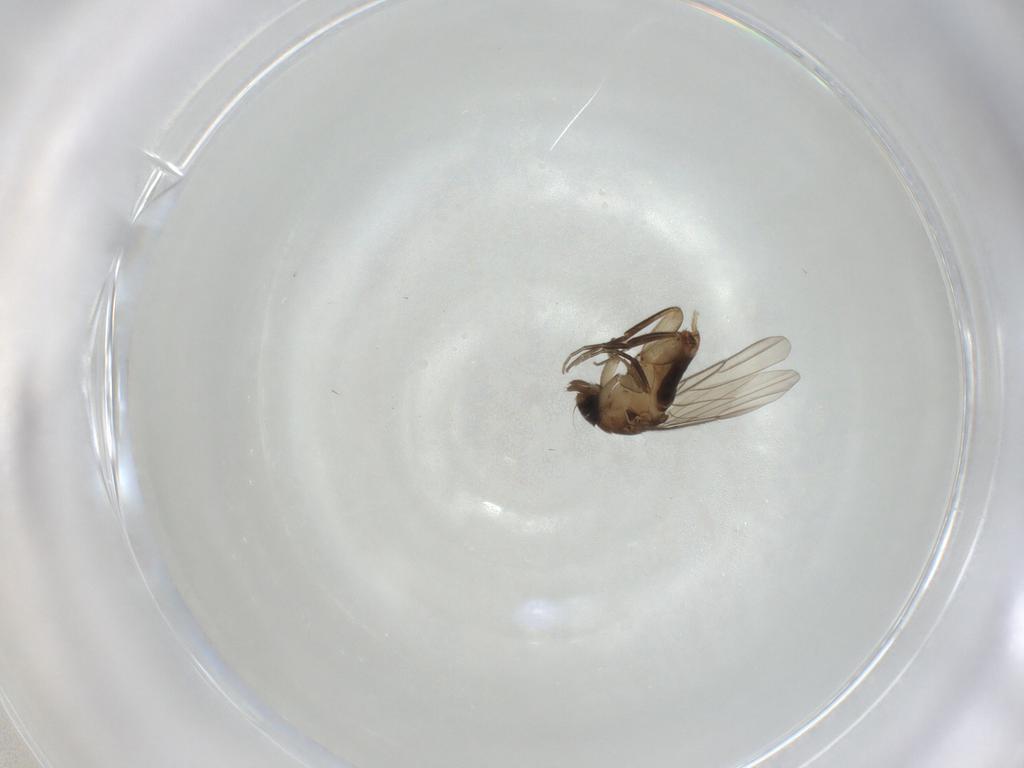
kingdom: Animalia
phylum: Arthropoda
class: Insecta
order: Diptera
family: Phoridae
